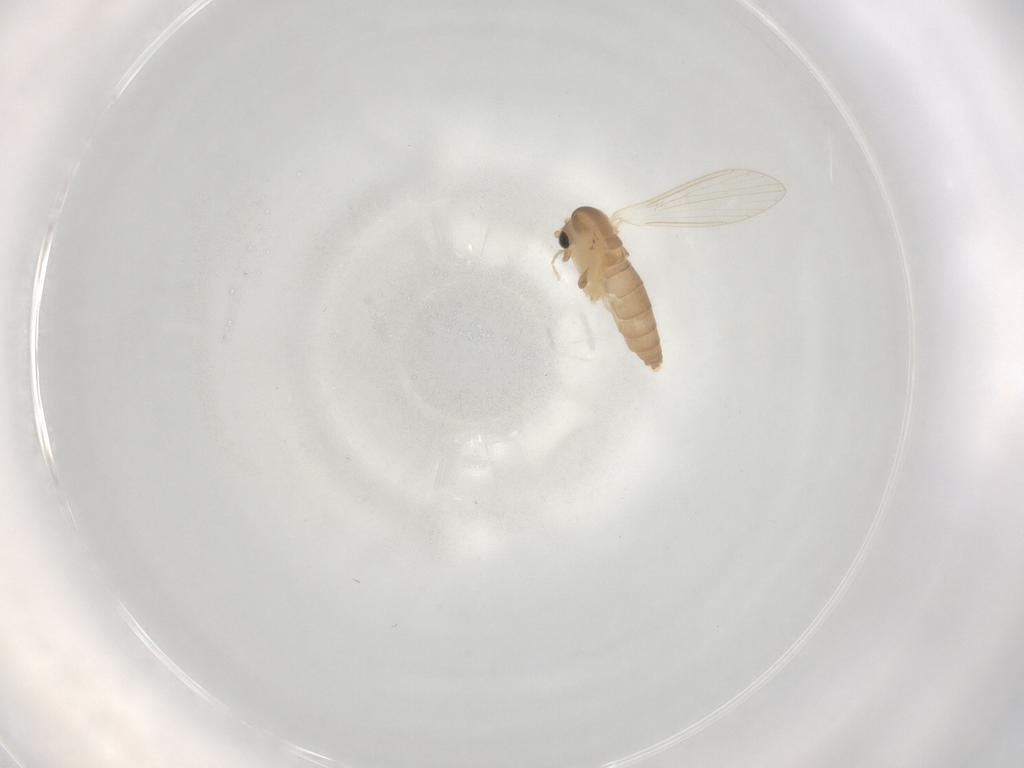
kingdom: Animalia
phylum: Arthropoda
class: Insecta
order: Diptera
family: Psychodidae
